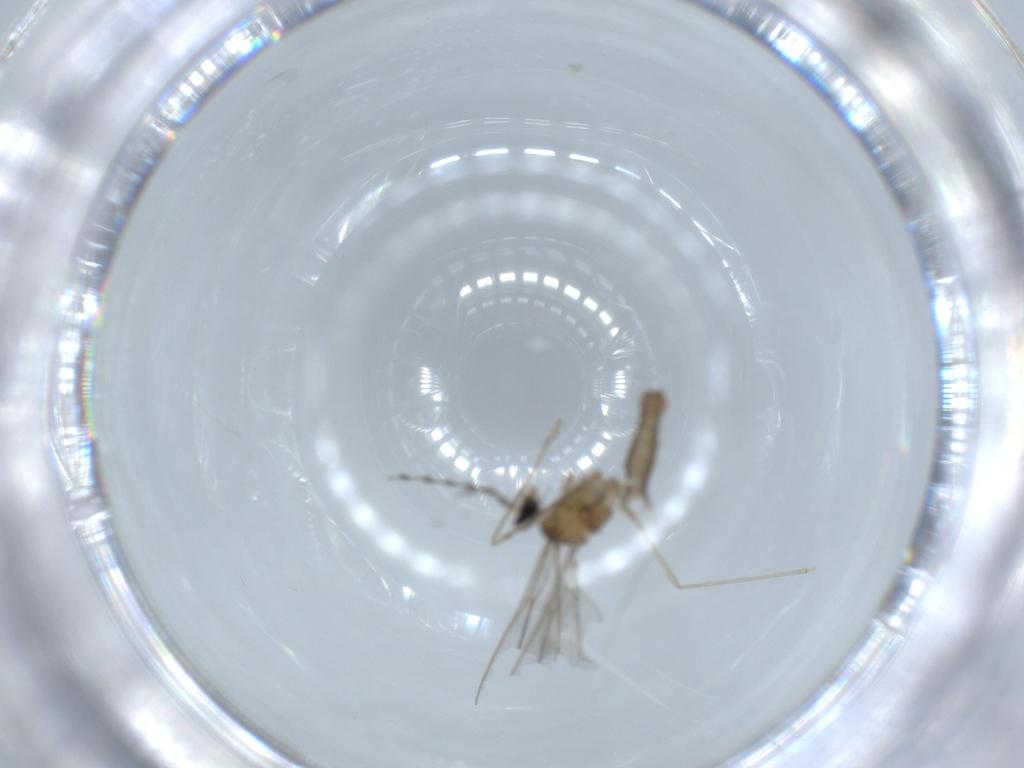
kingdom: Animalia
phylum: Arthropoda
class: Insecta
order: Diptera
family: Cecidomyiidae
